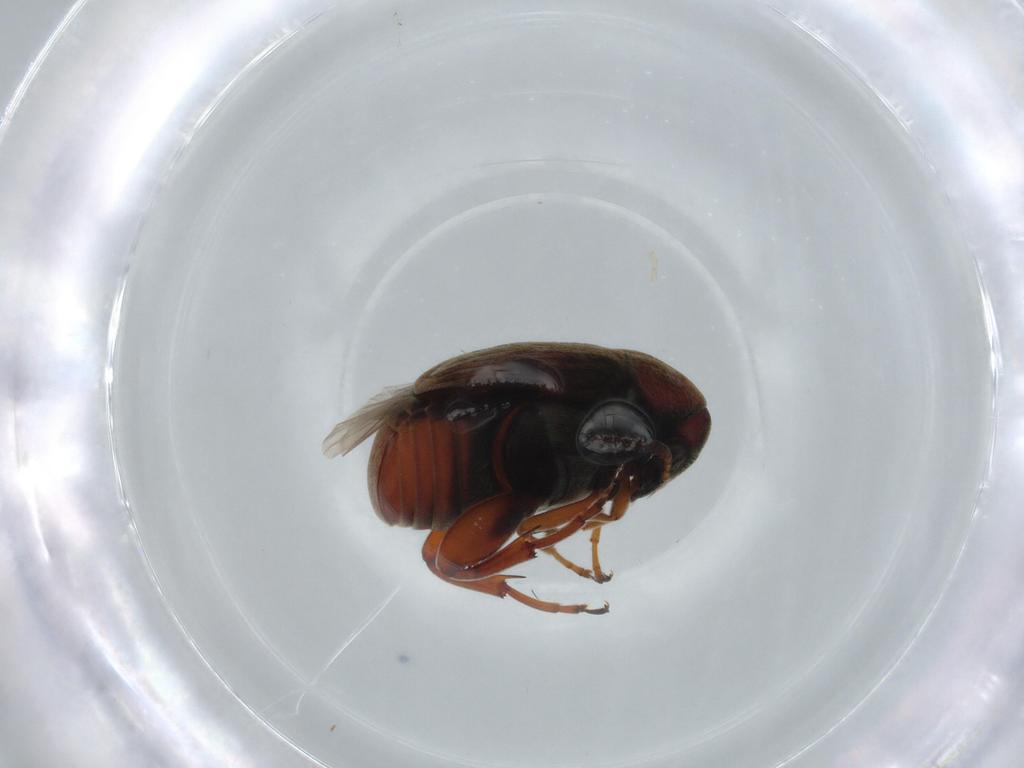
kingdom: Animalia
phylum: Arthropoda
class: Insecta
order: Coleoptera
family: Chrysomelidae
